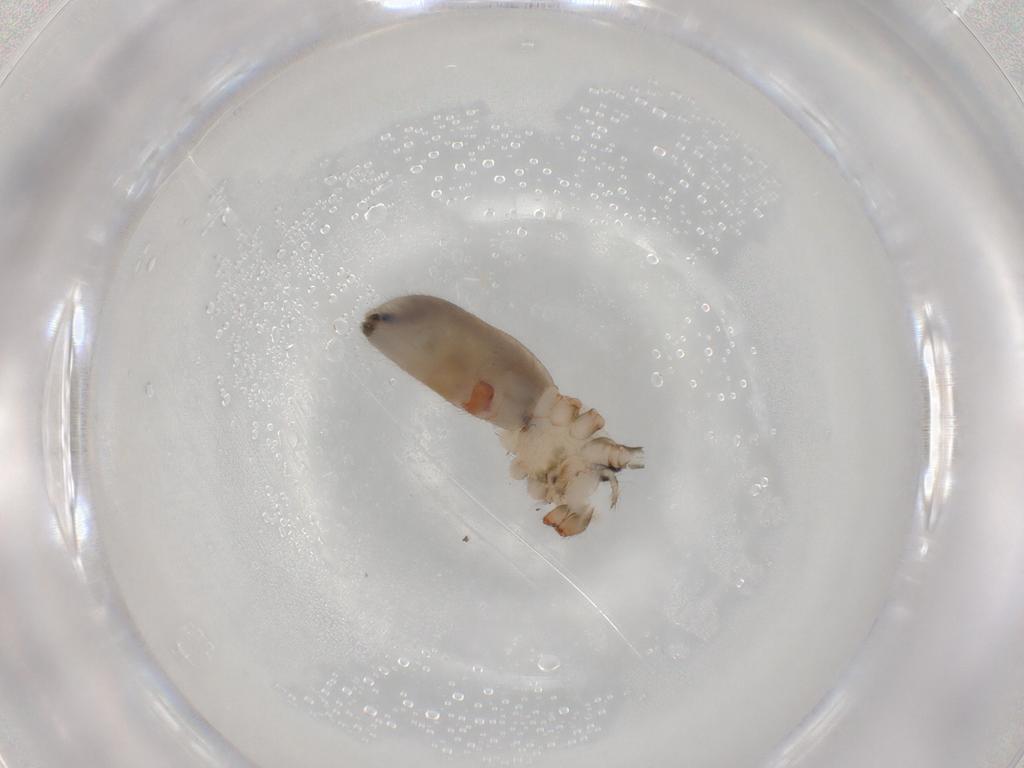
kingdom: Animalia
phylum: Arthropoda
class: Arachnida
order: Araneae
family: Pholcidae
